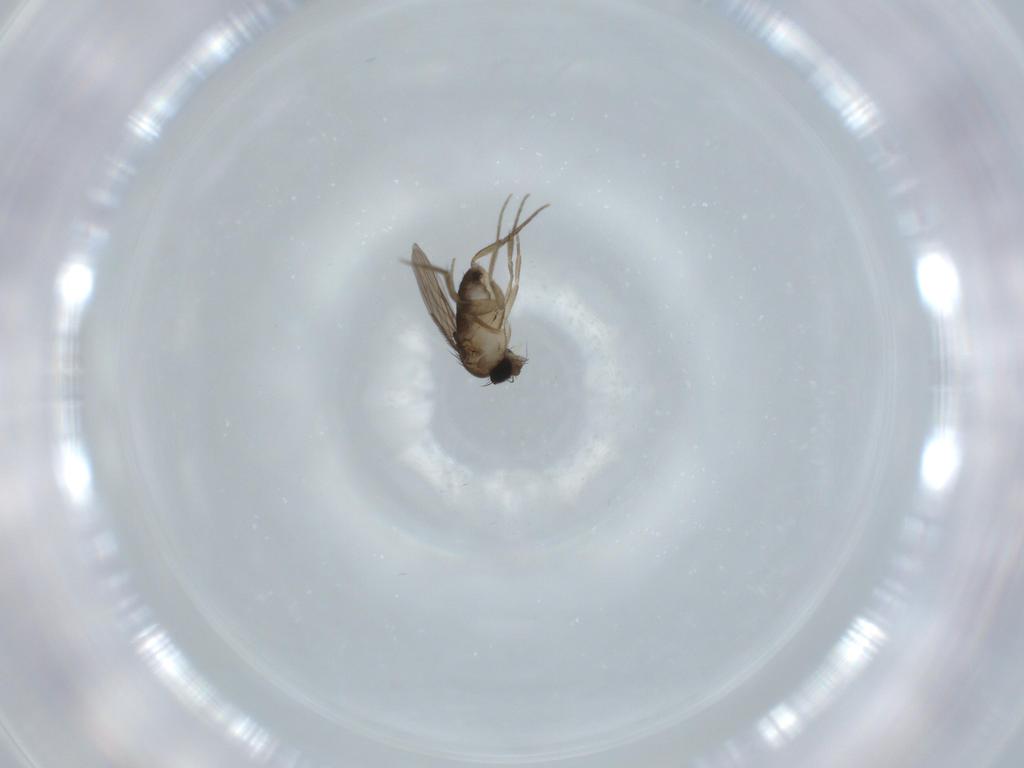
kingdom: Animalia
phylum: Arthropoda
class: Insecta
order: Diptera
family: Phoridae
